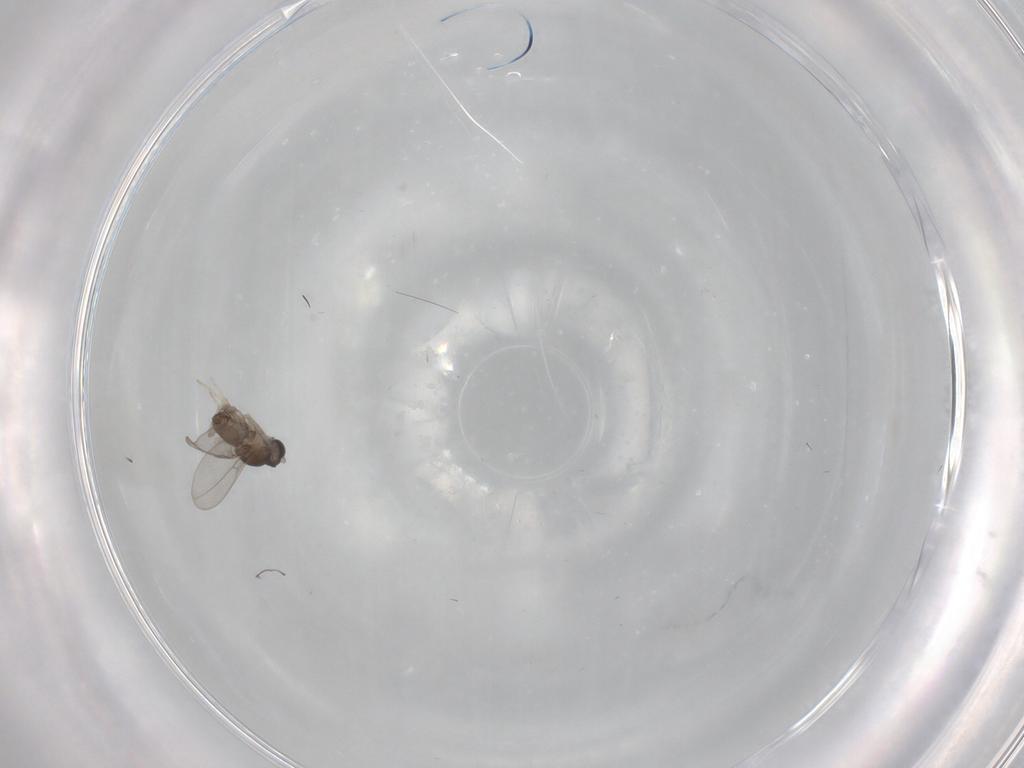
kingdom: Animalia
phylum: Arthropoda
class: Insecta
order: Diptera
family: Cecidomyiidae
